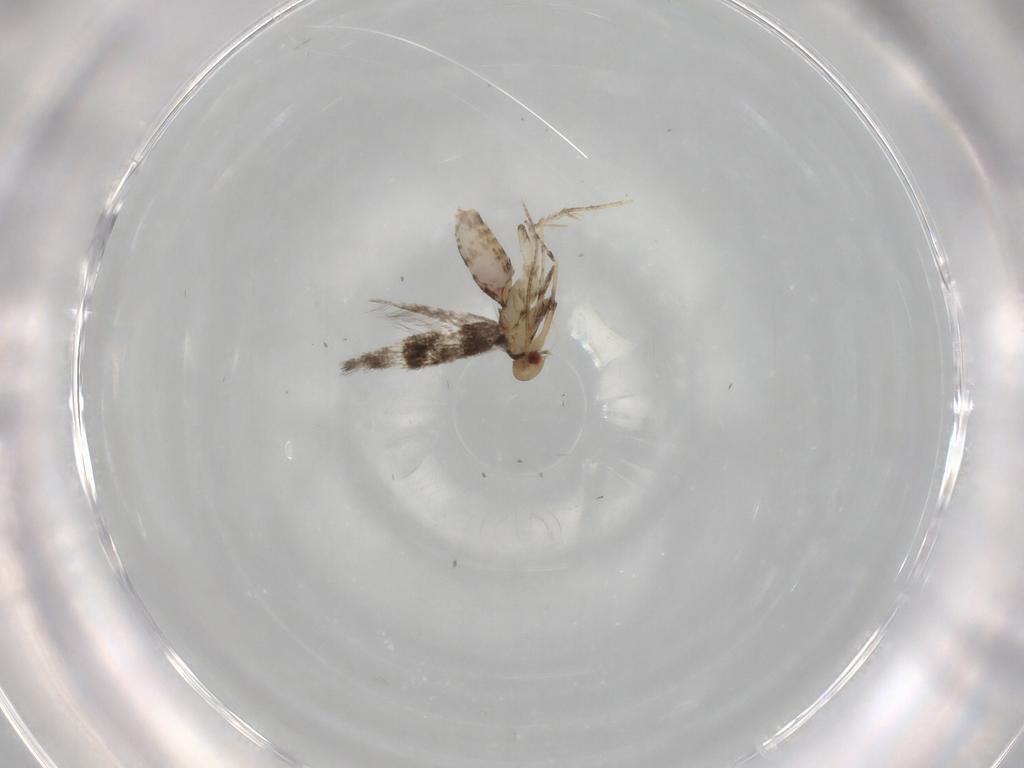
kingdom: Animalia
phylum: Arthropoda
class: Insecta
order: Lepidoptera
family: Gracillariidae
